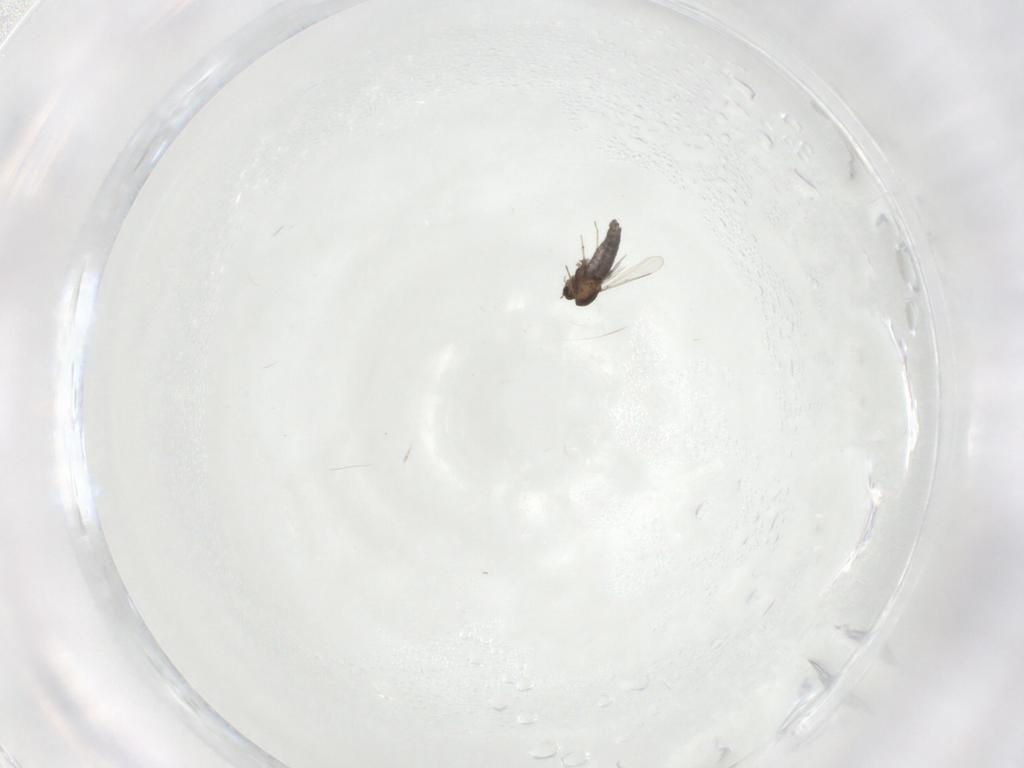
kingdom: Animalia
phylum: Arthropoda
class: Insecta
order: Diptera
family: Tabanidae
